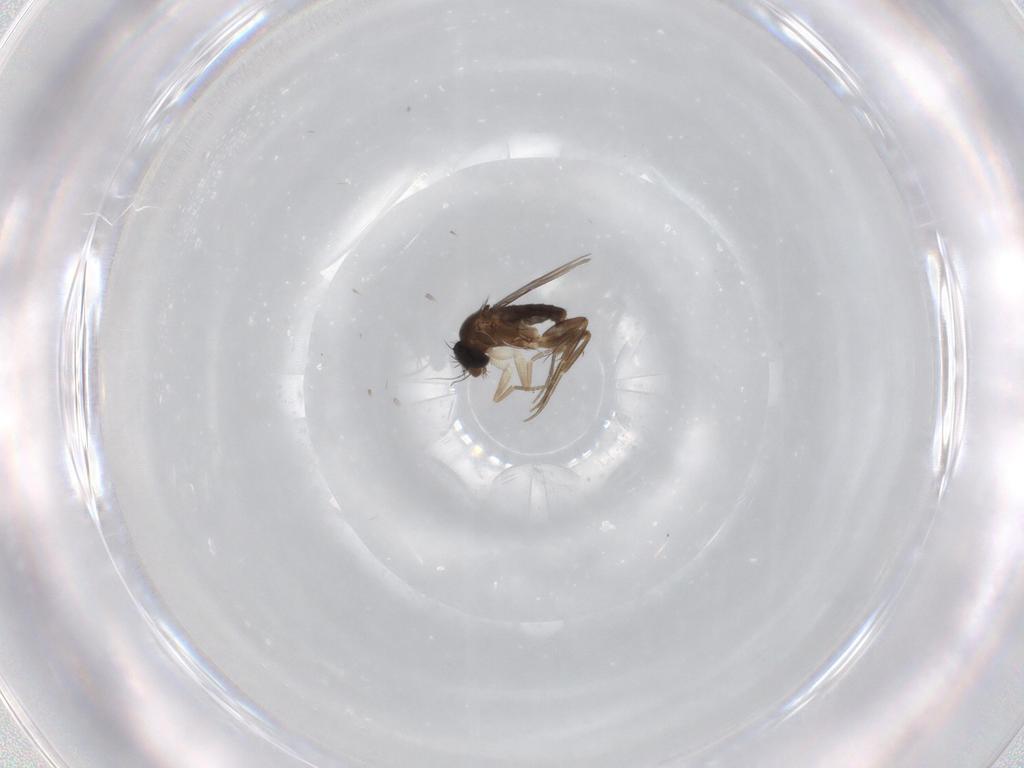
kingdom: Animalia
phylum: Arthropoda
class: Insecta
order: Diptera
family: Phoridae
